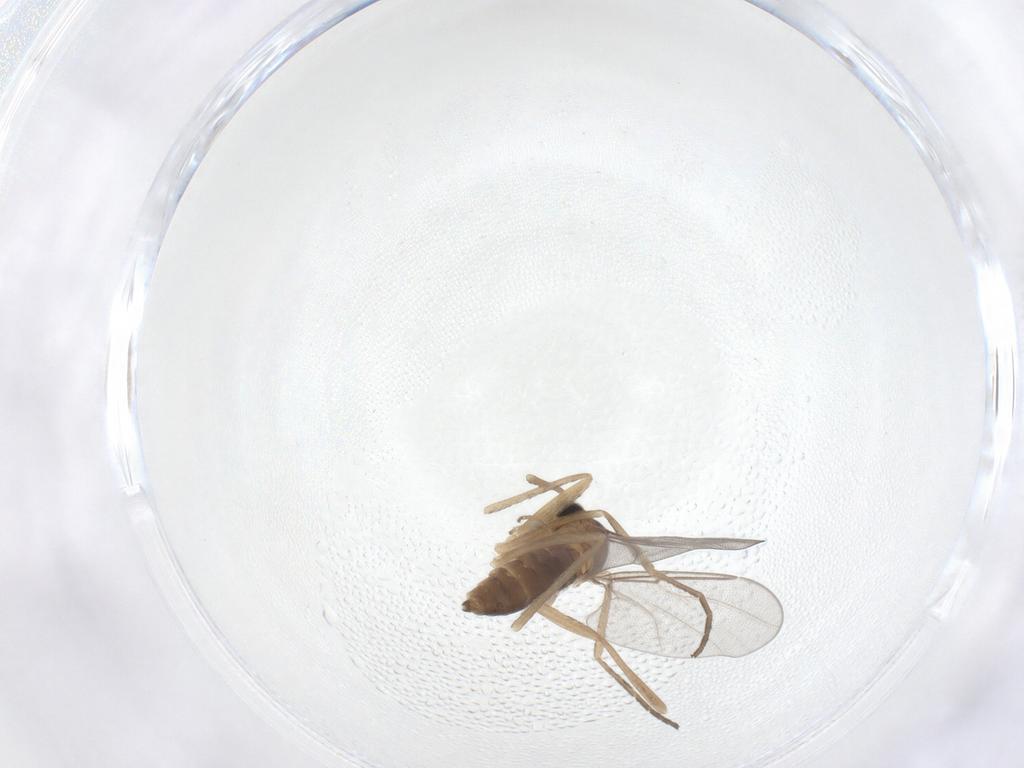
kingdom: Animalia
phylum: Arthropoda
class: Insecta
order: Diptera
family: Cecidomyiidae
